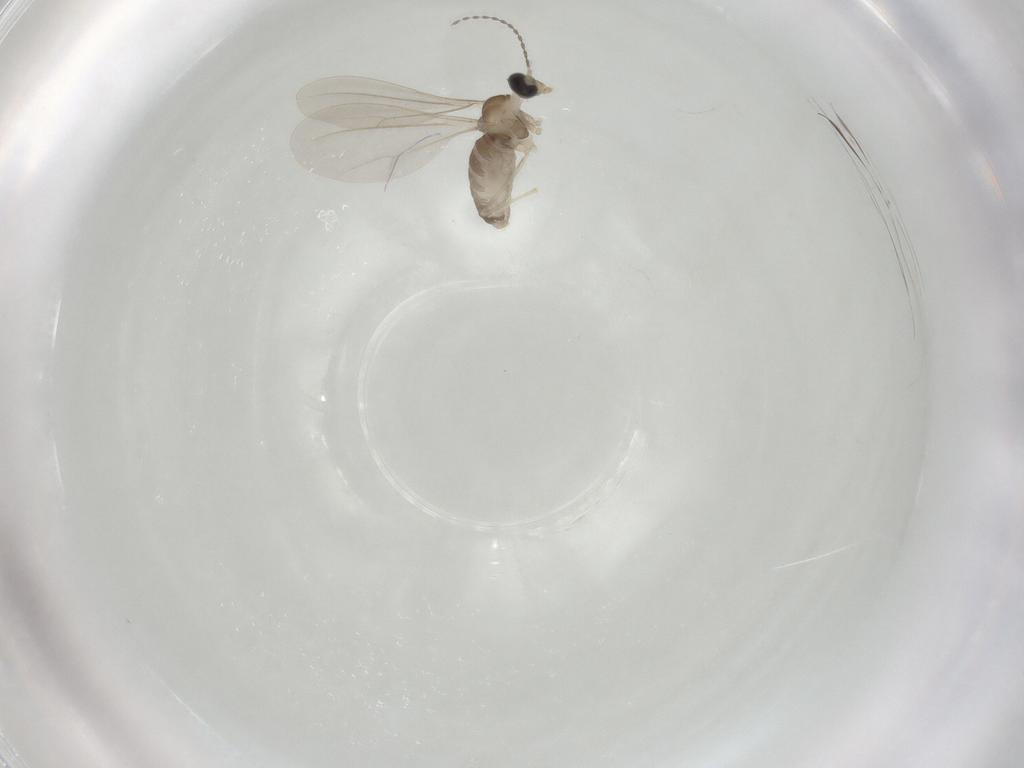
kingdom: Animalia
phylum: Arthropoda
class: Insecta
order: Diptera
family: Cecidomyiidae
